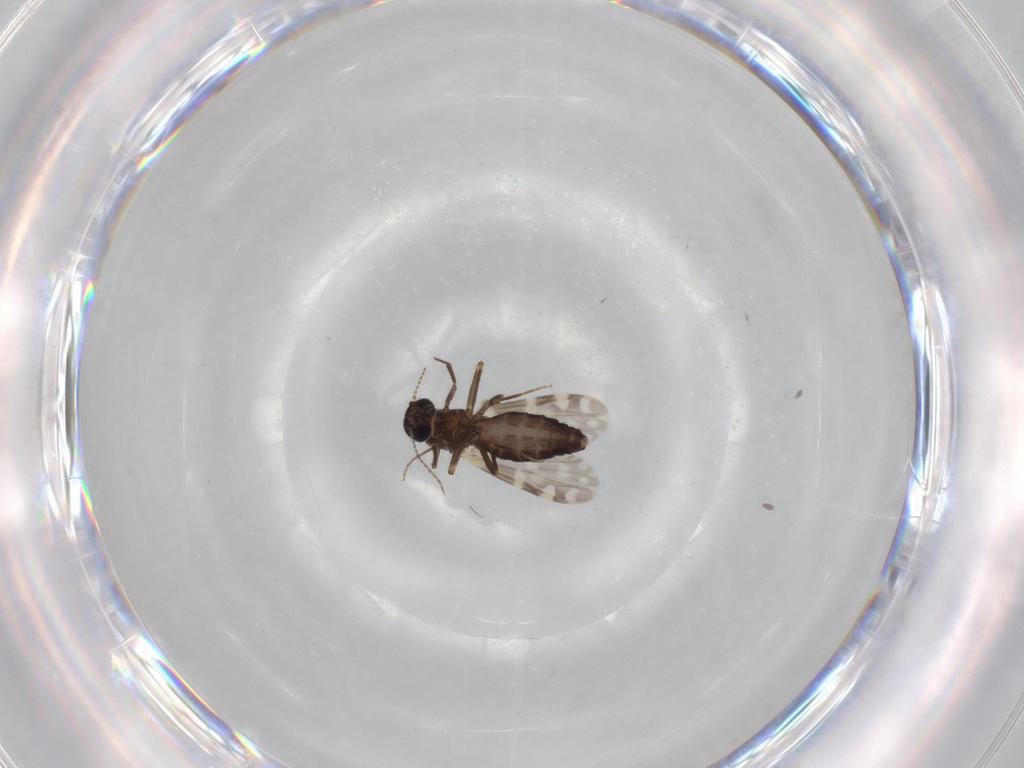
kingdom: Animalia
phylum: Arthropoda
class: Insecta
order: Diptera
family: Ceratopogonidae
